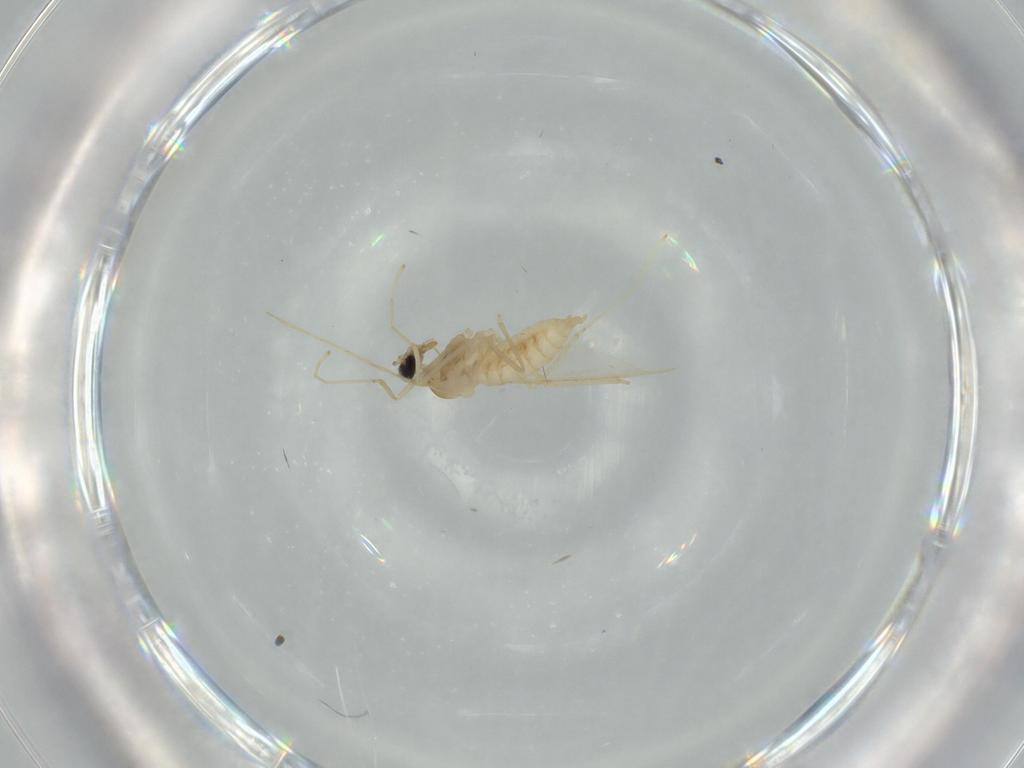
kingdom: Animalia
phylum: Arthropoda
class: Insecta
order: Diptera
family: Cecidomyiidae
